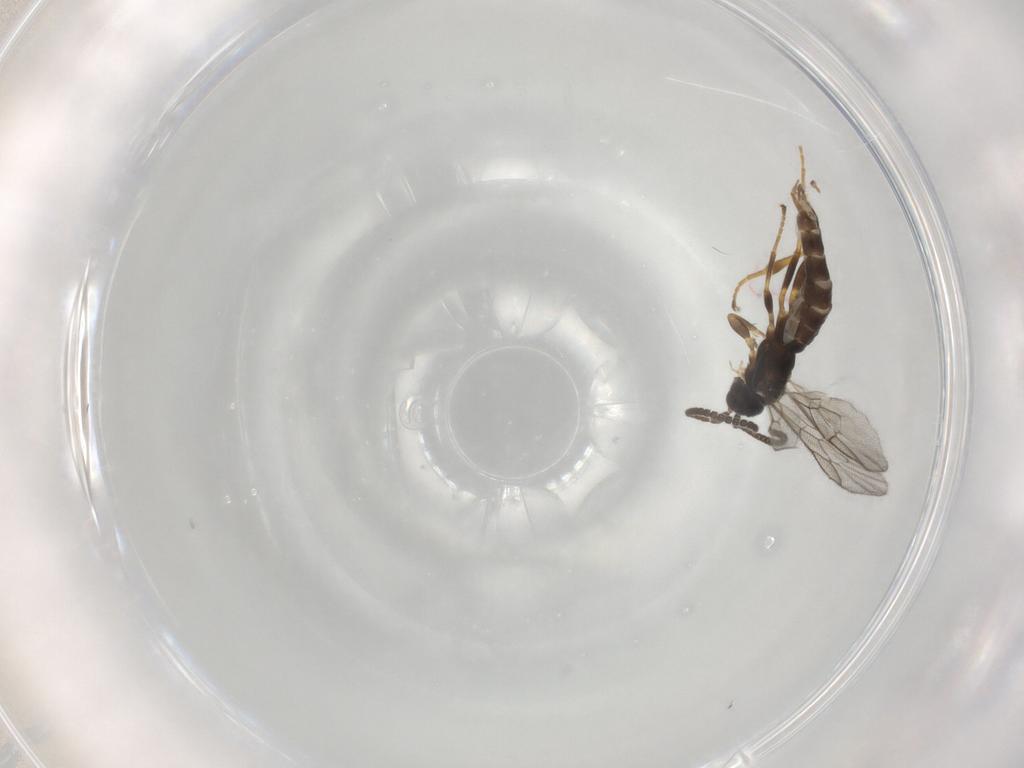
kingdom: Animalia
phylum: Arthropoda
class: Insecta
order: Hymenoptera
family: Ichneumonidae
